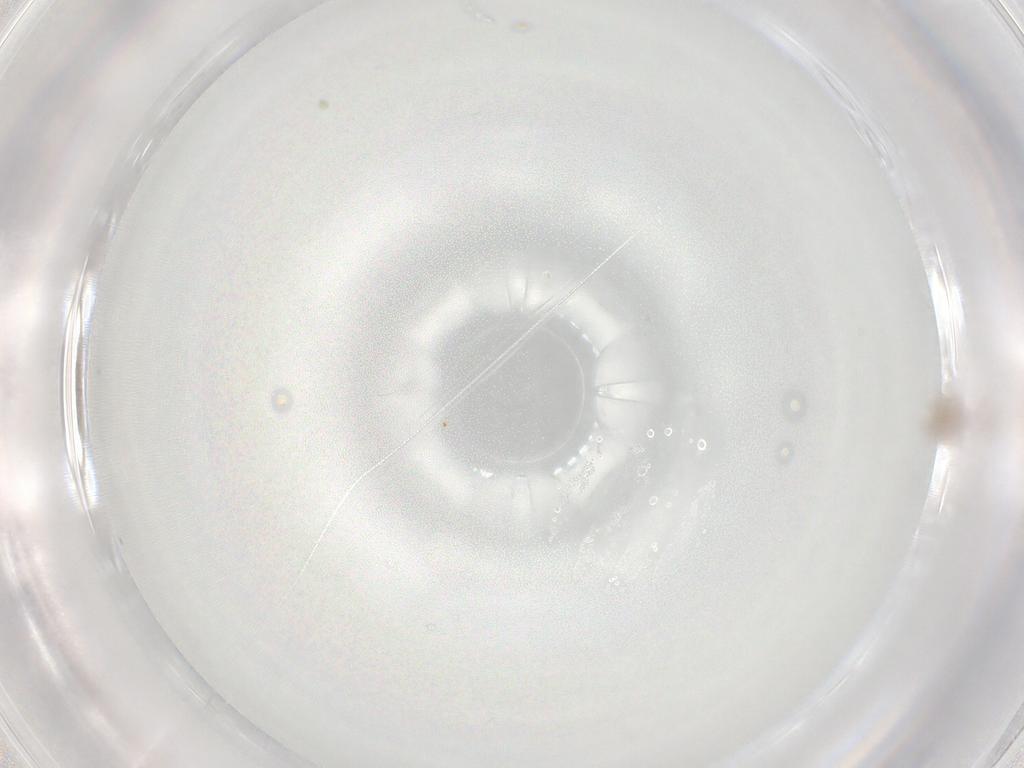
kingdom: Animalia
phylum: Arthropoda
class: Insecta
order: Diptera
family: Cecidomyiidae
